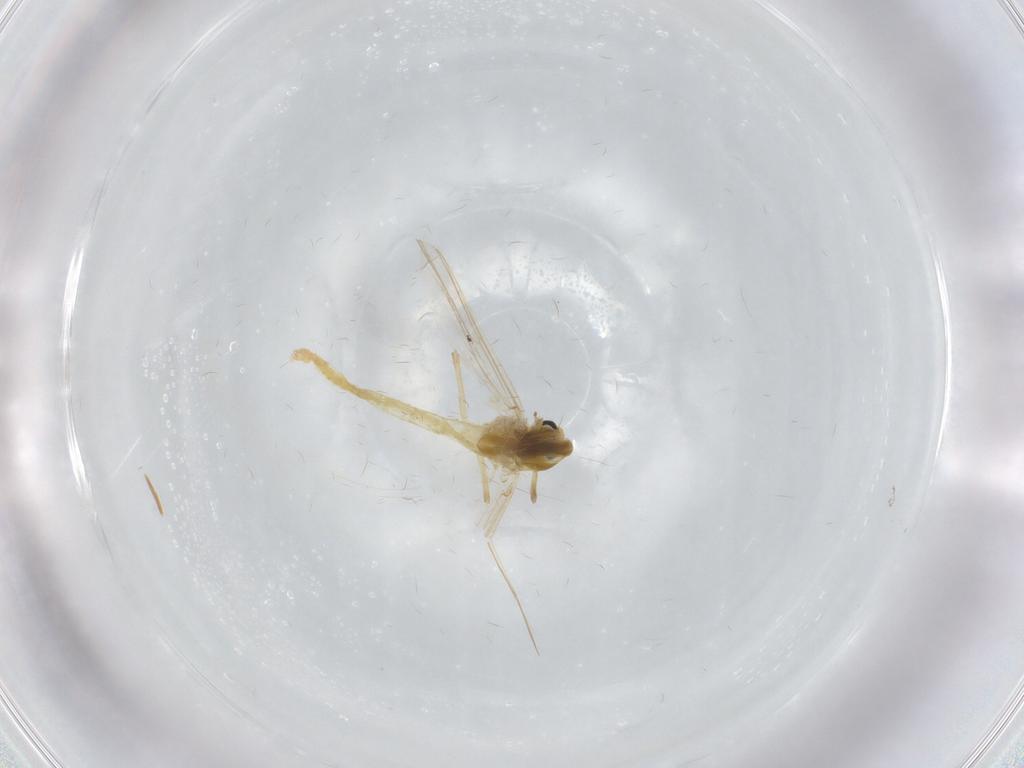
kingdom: Animalia
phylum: Arthropoda
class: Insecta
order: Diptera
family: Chironomidae
